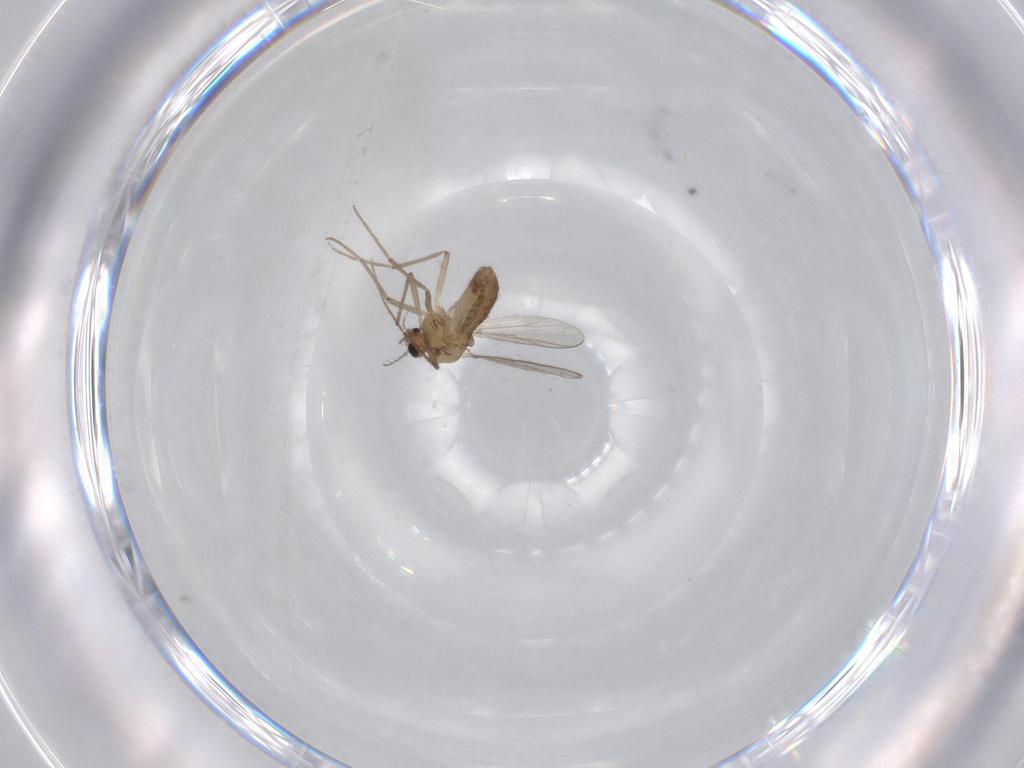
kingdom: Animalia
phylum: Arthropoda
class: Insecta
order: Diptera
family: Chironomidae
